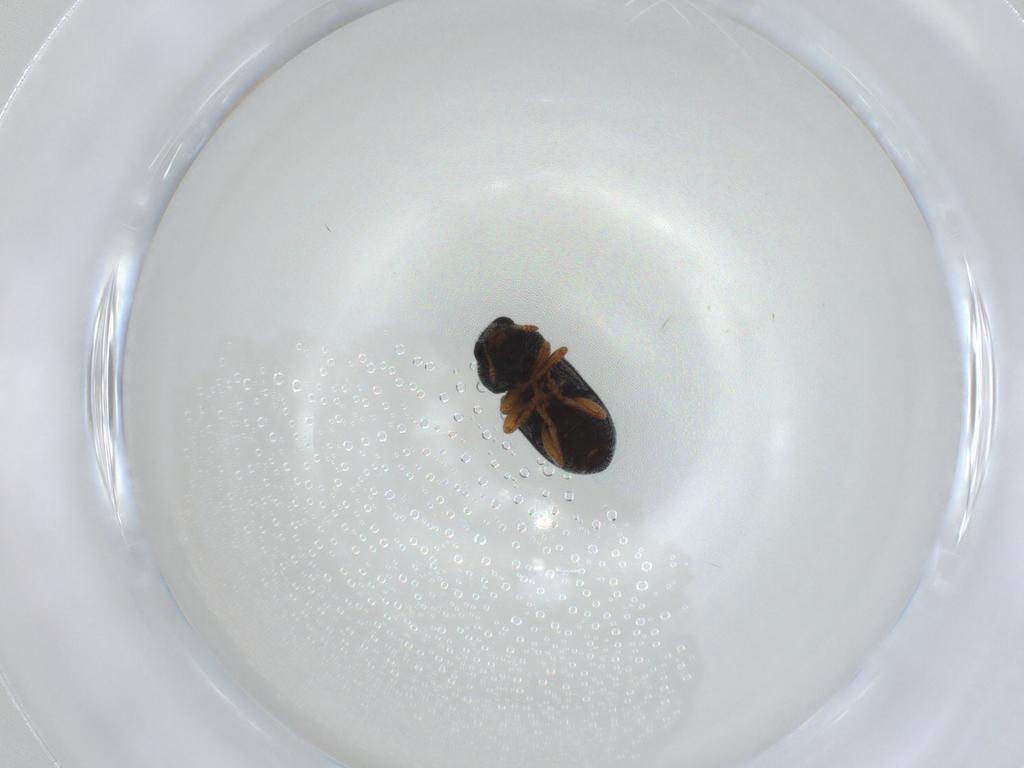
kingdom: Animalia
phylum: Arthropoda
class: Insecta
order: Coleoptera
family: Anthribidae
